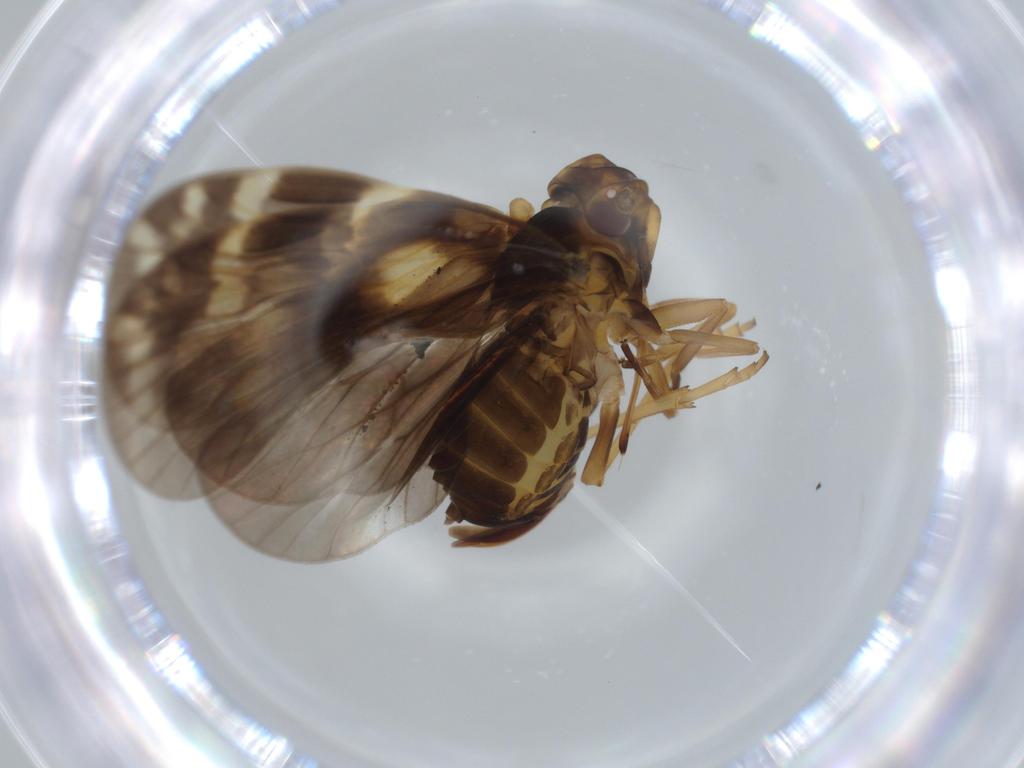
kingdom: Animalia
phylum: Arthropoda
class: Insecta
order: Hemiptera
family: Cixiidae
